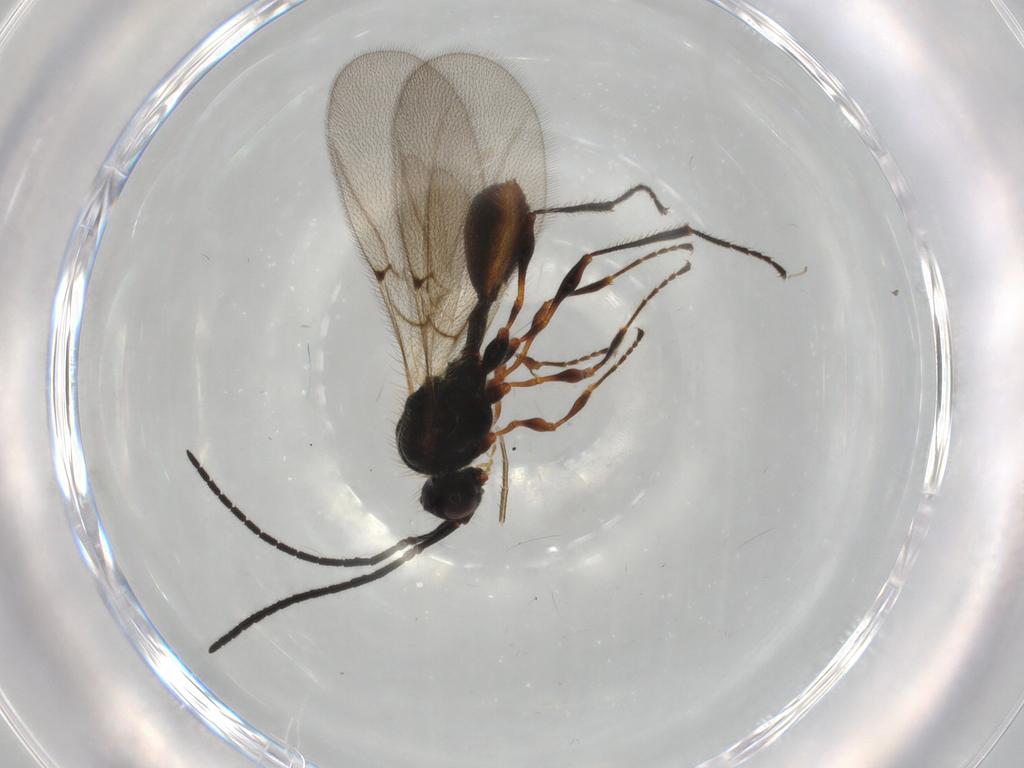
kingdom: Animalia
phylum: Arthropoda
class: Insecta
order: Hymenoptera
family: Diapriidae
